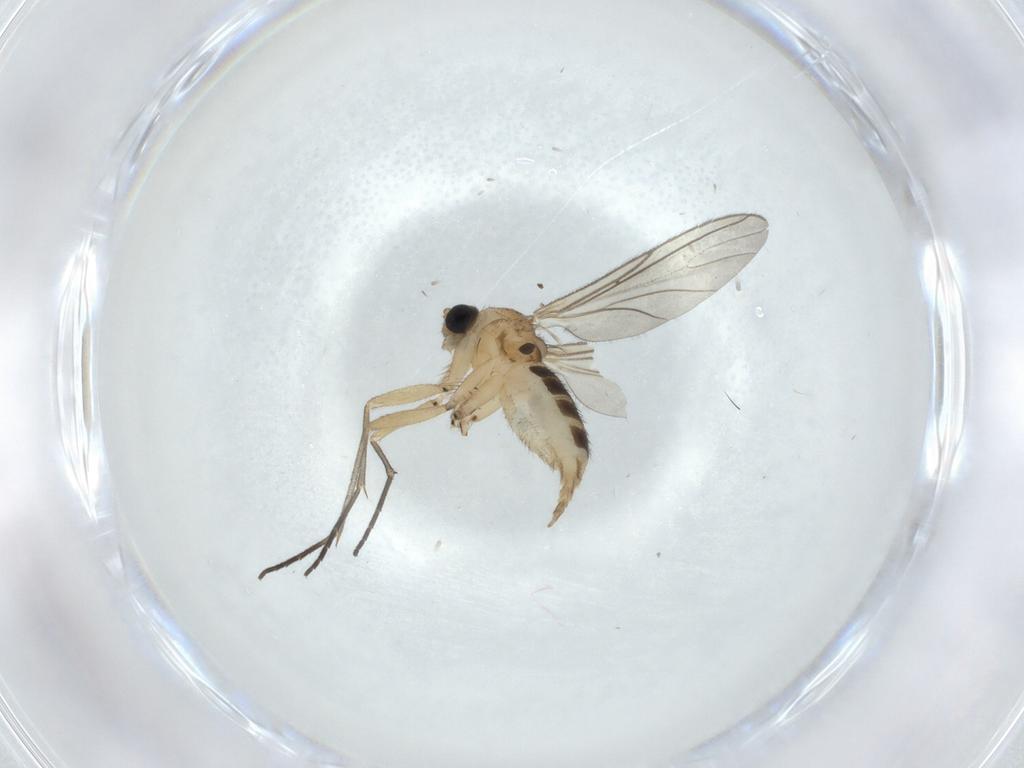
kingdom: Animalia
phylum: Arthropoda
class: Insecta
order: Diptera
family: Sciaridae
